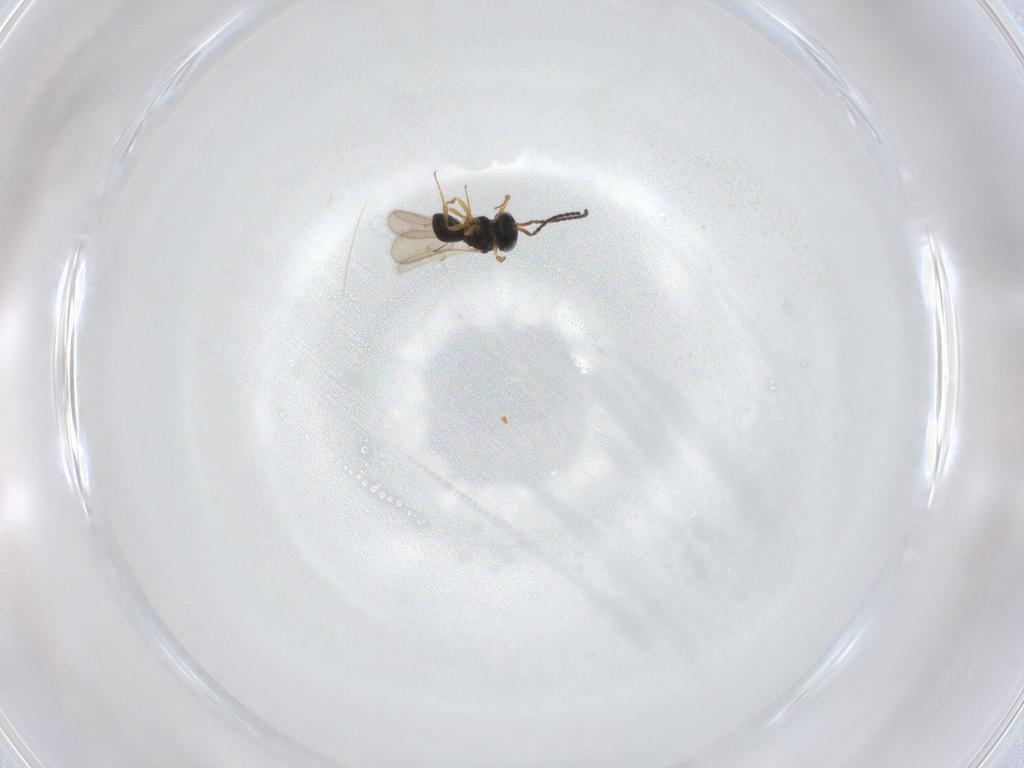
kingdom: Animalia
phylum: Arthropoda
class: Insecta
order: Hymenoptera
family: Scelionidae
